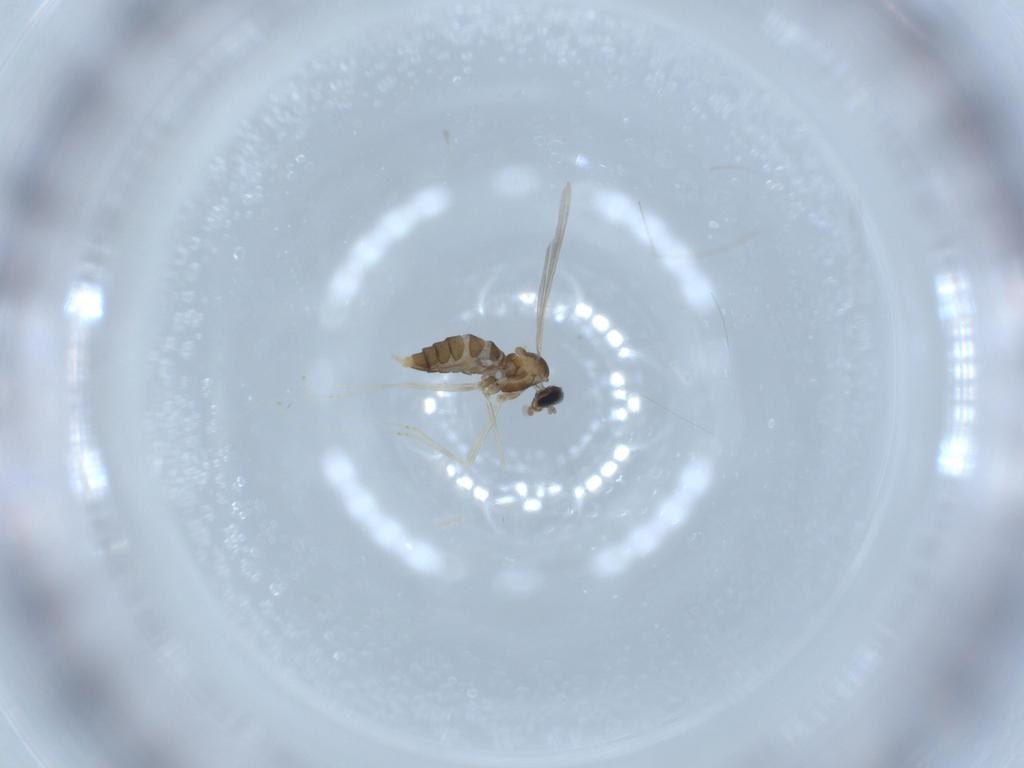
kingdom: Animalia
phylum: Arthropoda
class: Insecta
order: Diptera
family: Cecidomyiidae
